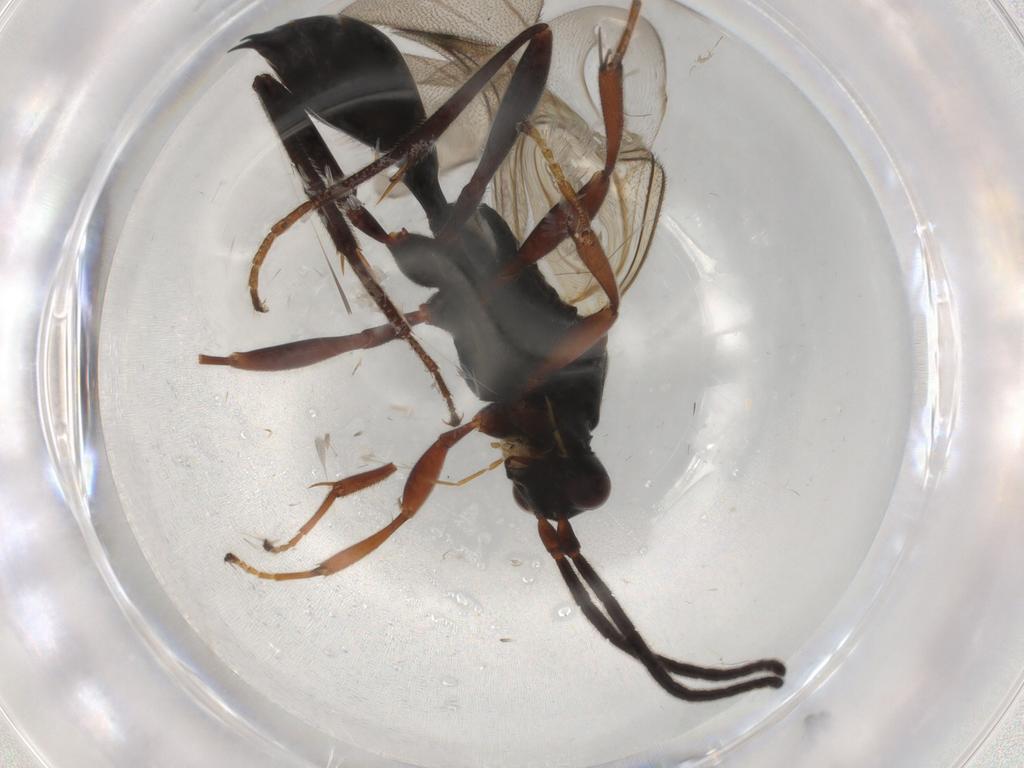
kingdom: Animalia
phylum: Arthropoda
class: Insecta
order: Hymenoptera
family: Proctotrupidae
